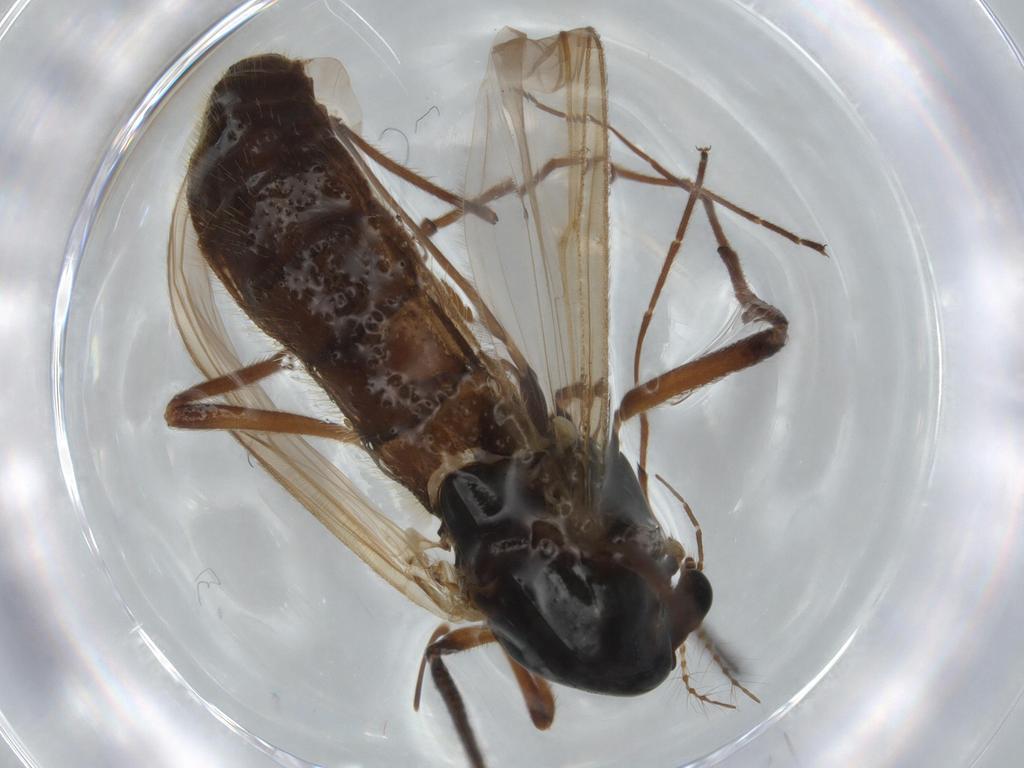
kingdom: Animalia
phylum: Arthropoda
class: Insecta
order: Diptera
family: Chironomidae
